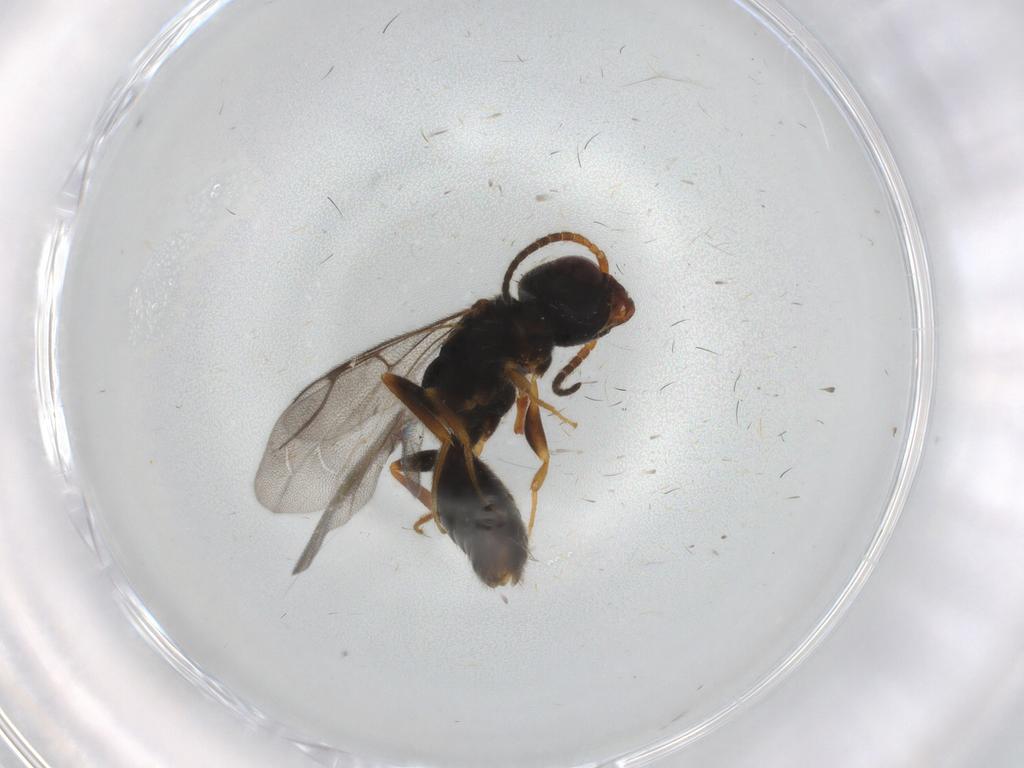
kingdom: Animalia
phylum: Arthropoda
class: Insecta
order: Hymenoptera
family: Bethylidae
